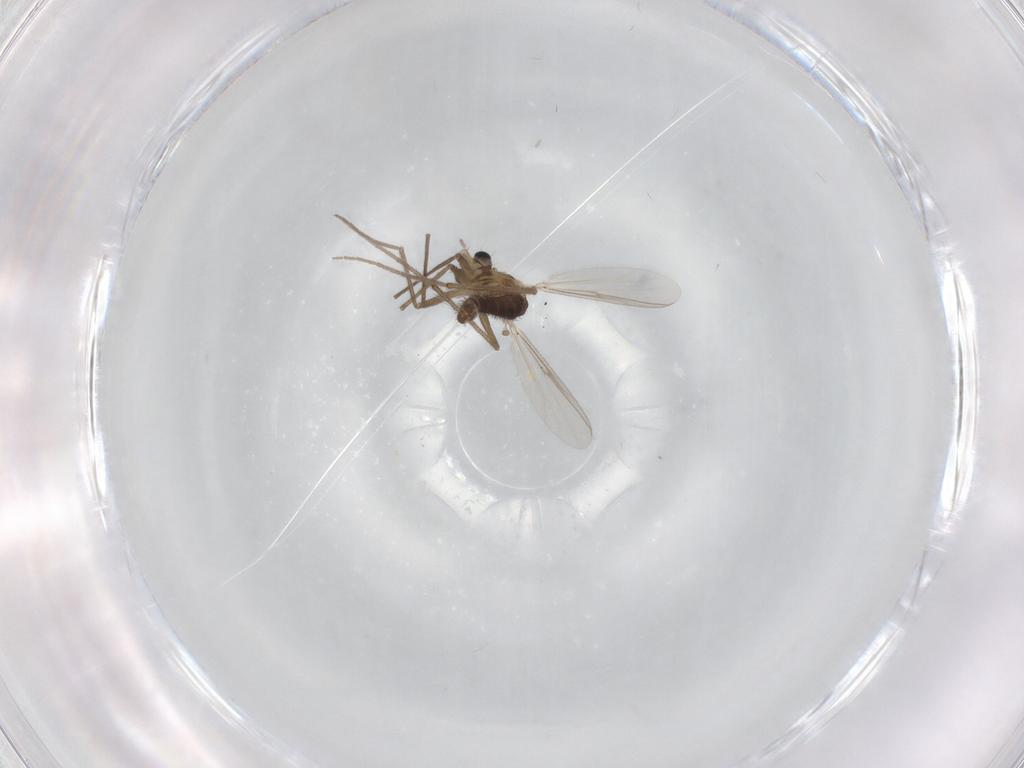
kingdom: Animalia
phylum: Arthropoda
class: Insecta
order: Diptera
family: Chironomidae
